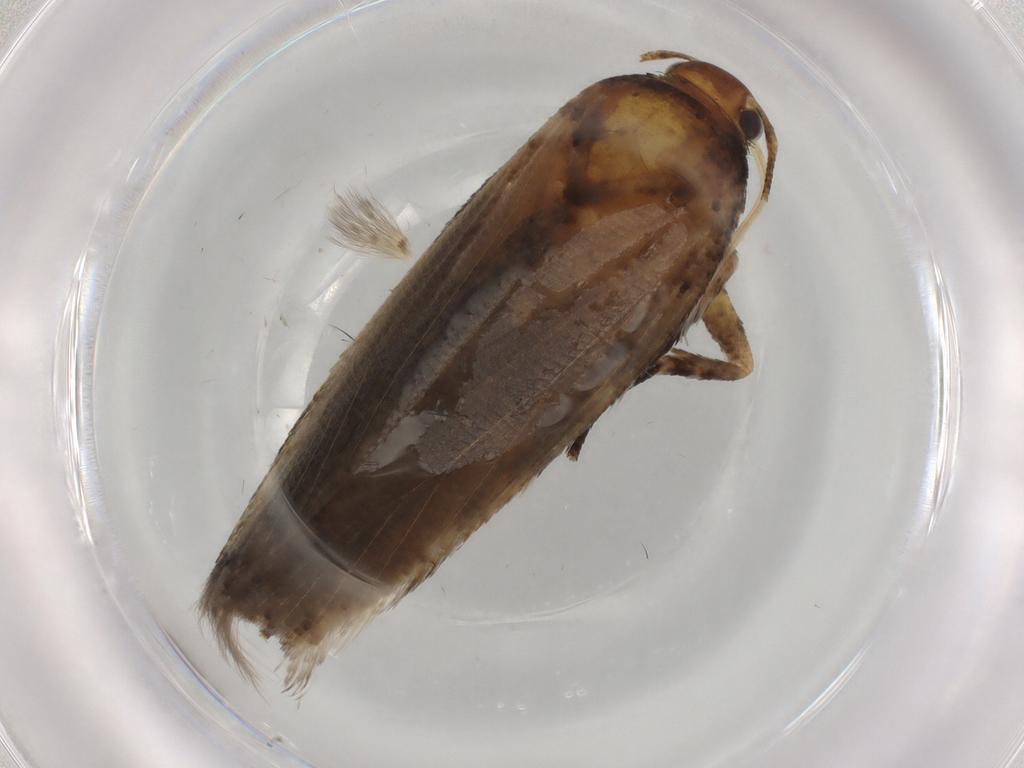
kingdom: Animalia
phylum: Arthropoda
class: Insecta
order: Lepidoptera
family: Gelechiidae
